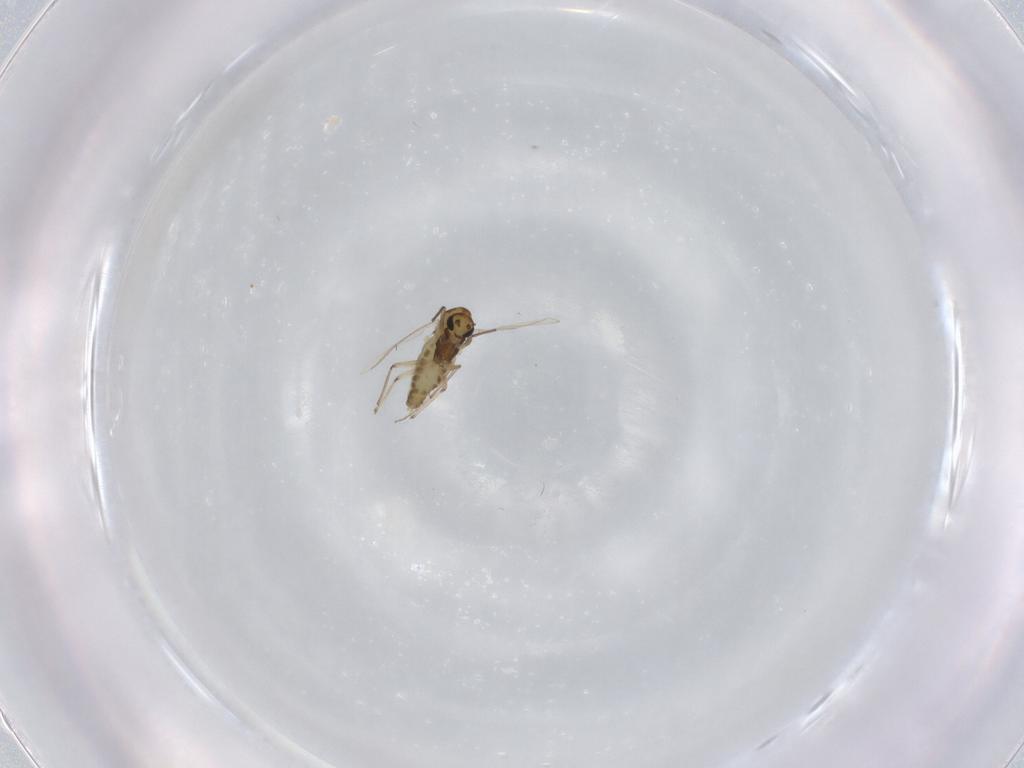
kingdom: Animalia
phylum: Arthropoda
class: Insecta
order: Diptera
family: Chironomidae
